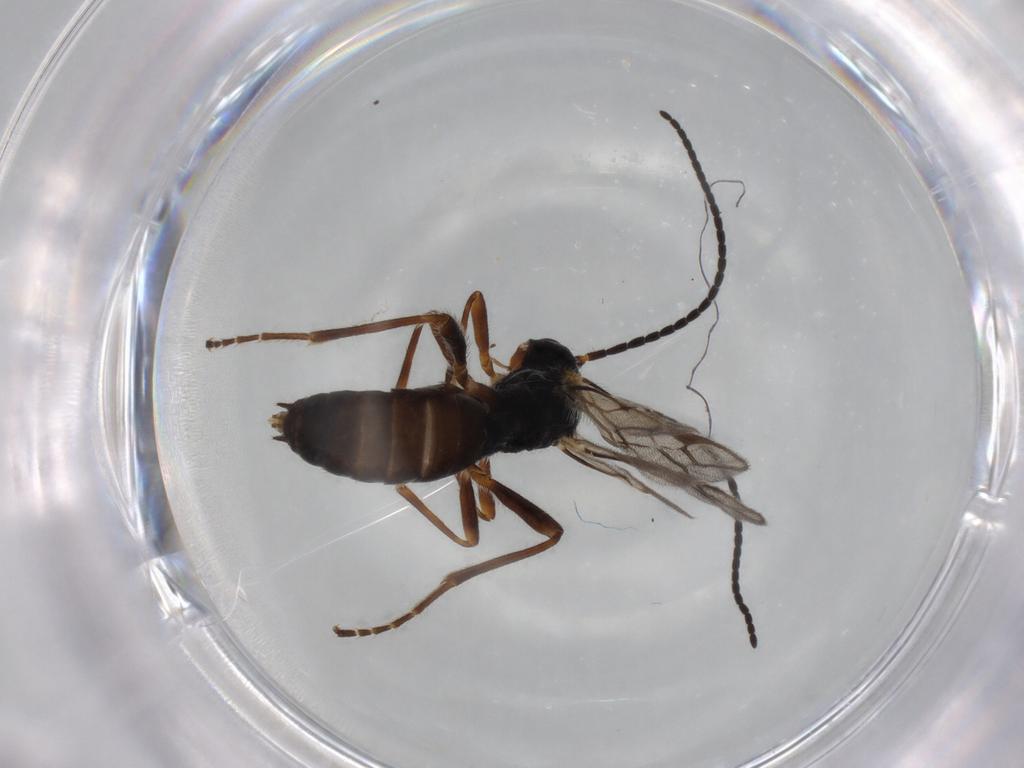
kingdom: Animalia
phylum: Arthropoda
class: Insecta
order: Hymenoptera
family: Braconidae
